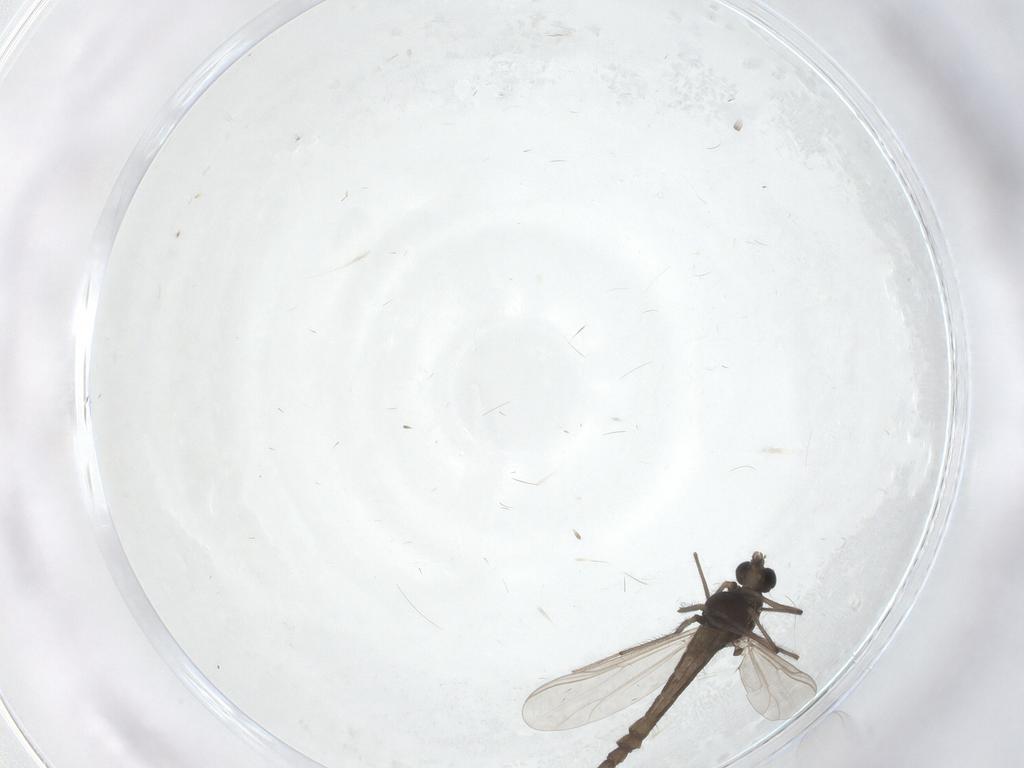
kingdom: Animalia
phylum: Arthropoda
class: Insecta
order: Diptera
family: Chironomidae
